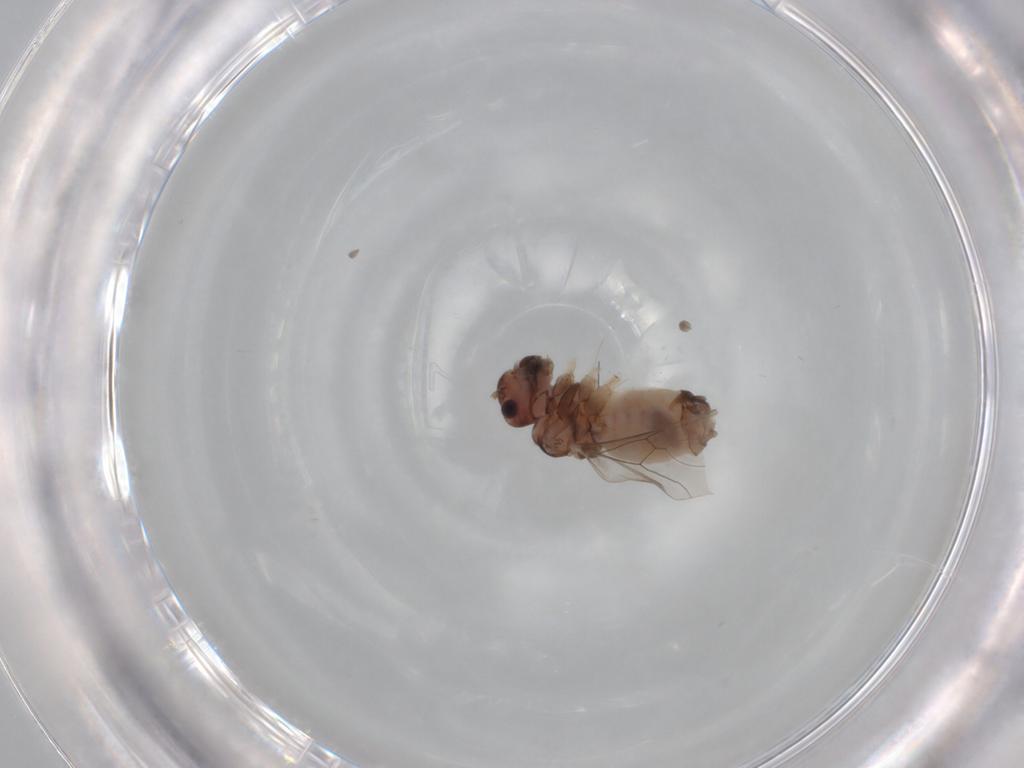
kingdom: Animalia
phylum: Arthropoda
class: Insecta
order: Psocodea
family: Peripsocidae
